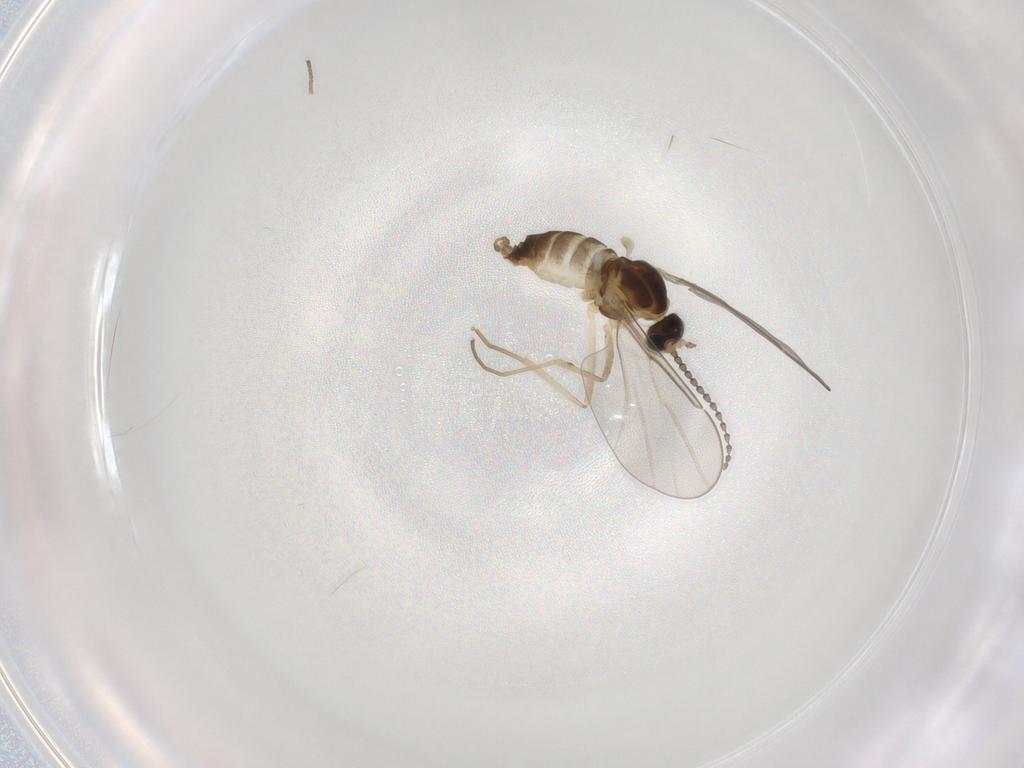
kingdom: Animalia
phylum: Arthropoda
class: Insecta
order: Diptera
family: Cecidomyiidae
